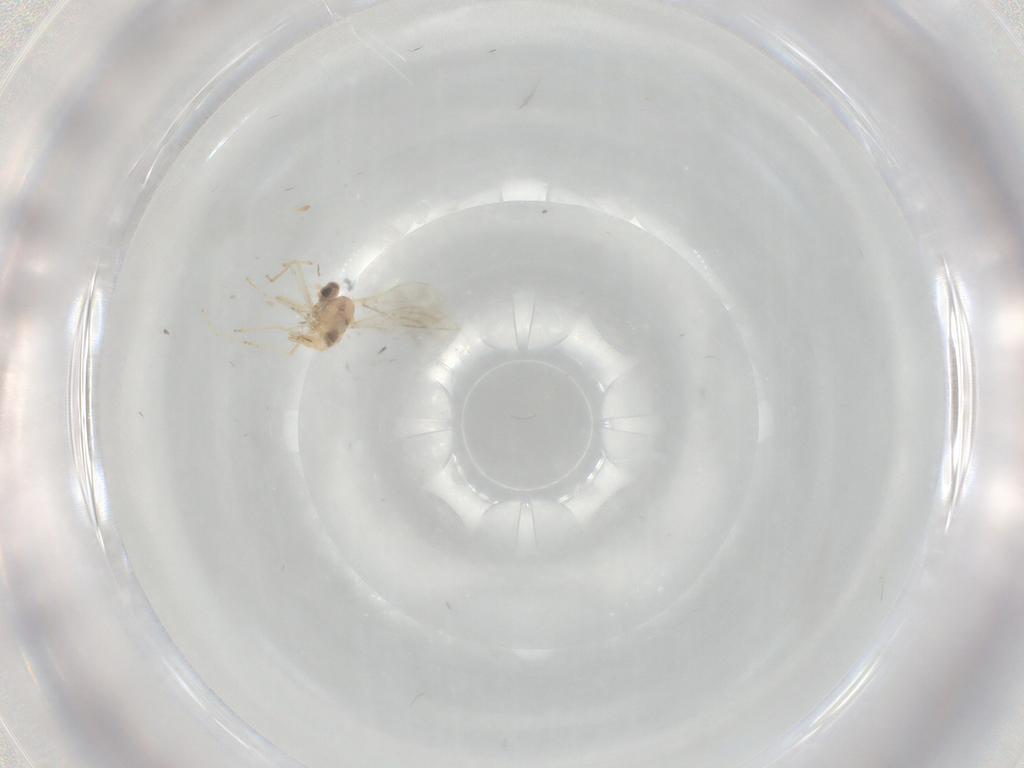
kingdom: Animalia
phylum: Arthropoda
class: Insecta
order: Diptera
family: Cecidomyiidae
